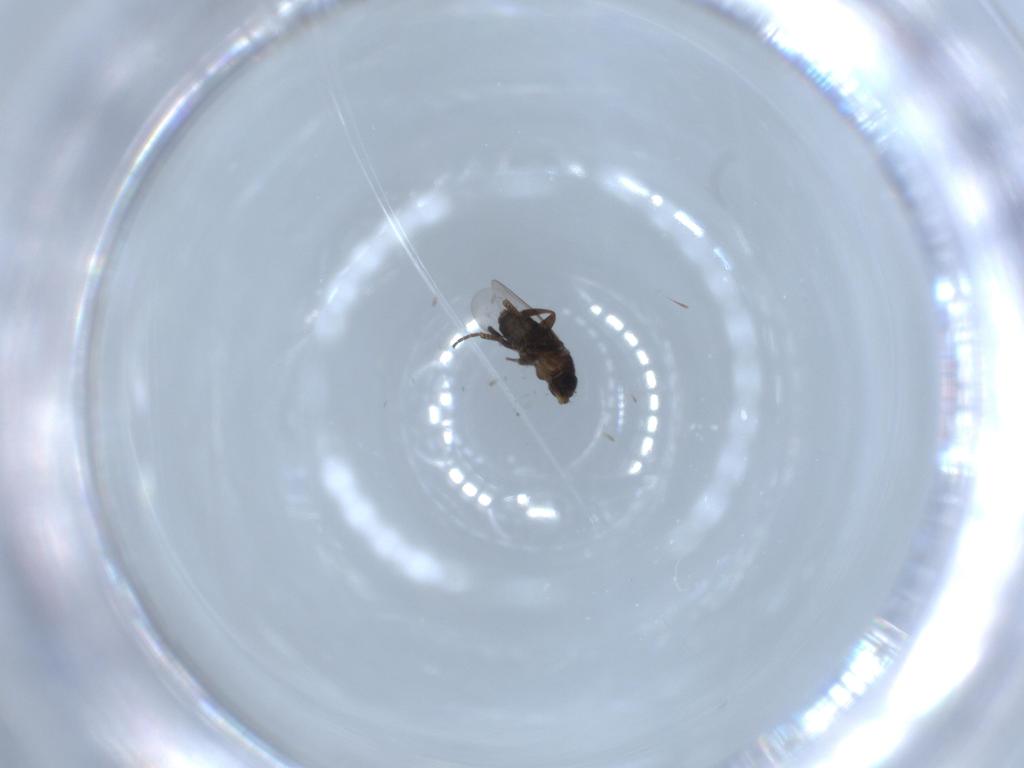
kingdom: Animalia
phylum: Arthropoda
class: Insecta
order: Diptera
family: Phoridae
